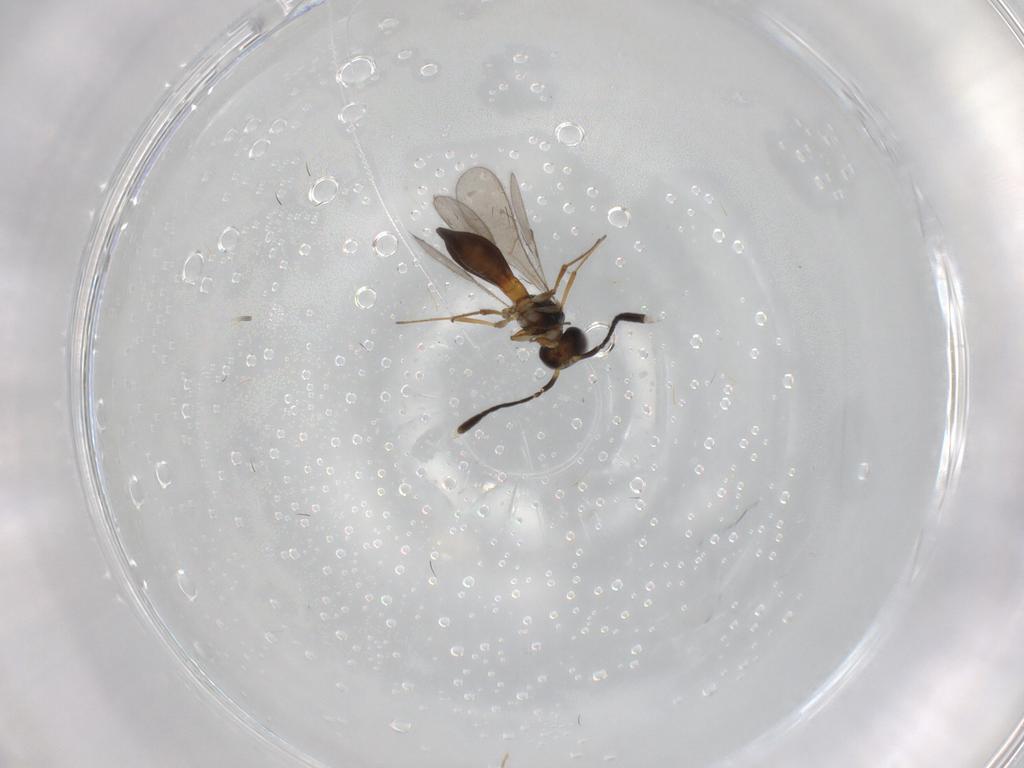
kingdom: Animalia
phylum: Arthropoda
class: Insecta
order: Hymenoptera
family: Scelionidae
